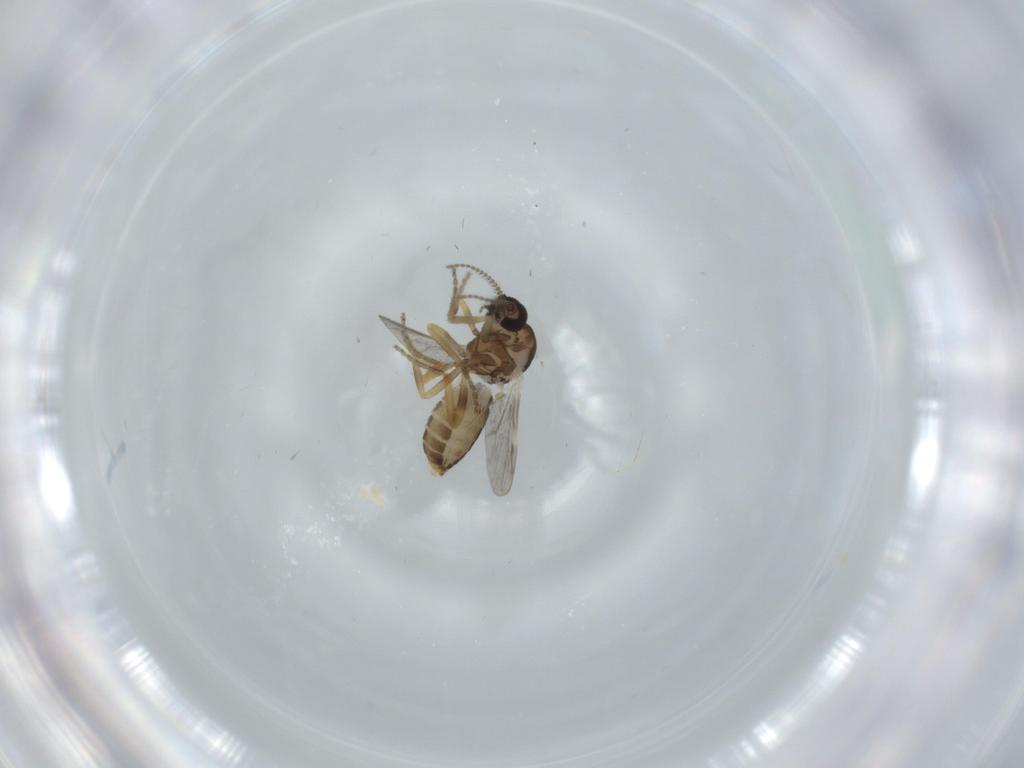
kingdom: Animalia
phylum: Arthropoda
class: Insecta
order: Diptera
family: Ceratopogonidae
